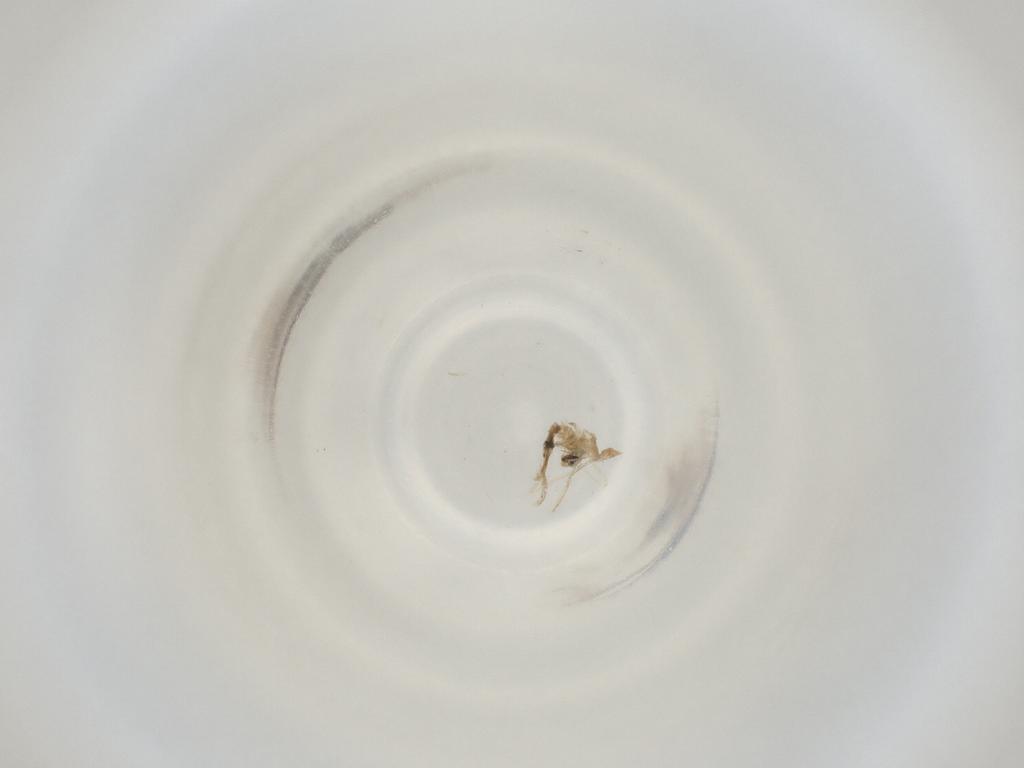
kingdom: Animalia
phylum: Arthropoda
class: Insecta
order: Diptera
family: Cecidomyiidae
